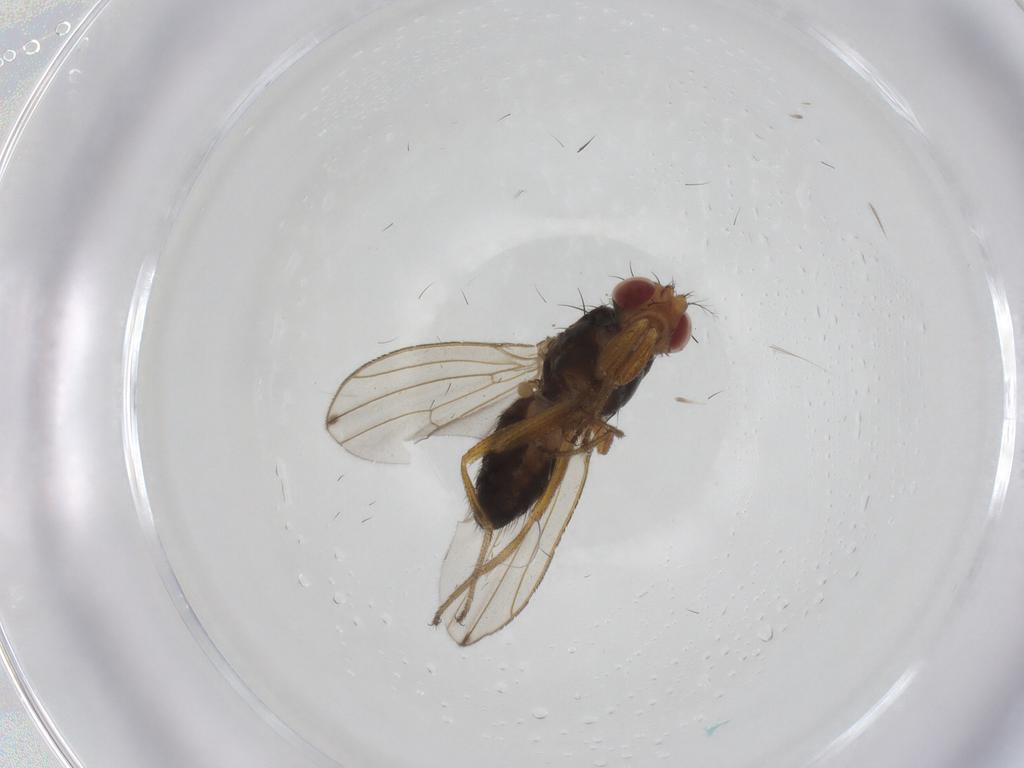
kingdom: Animalia
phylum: Arthropoda
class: Insecta
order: Diptera
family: Drosophilidae
